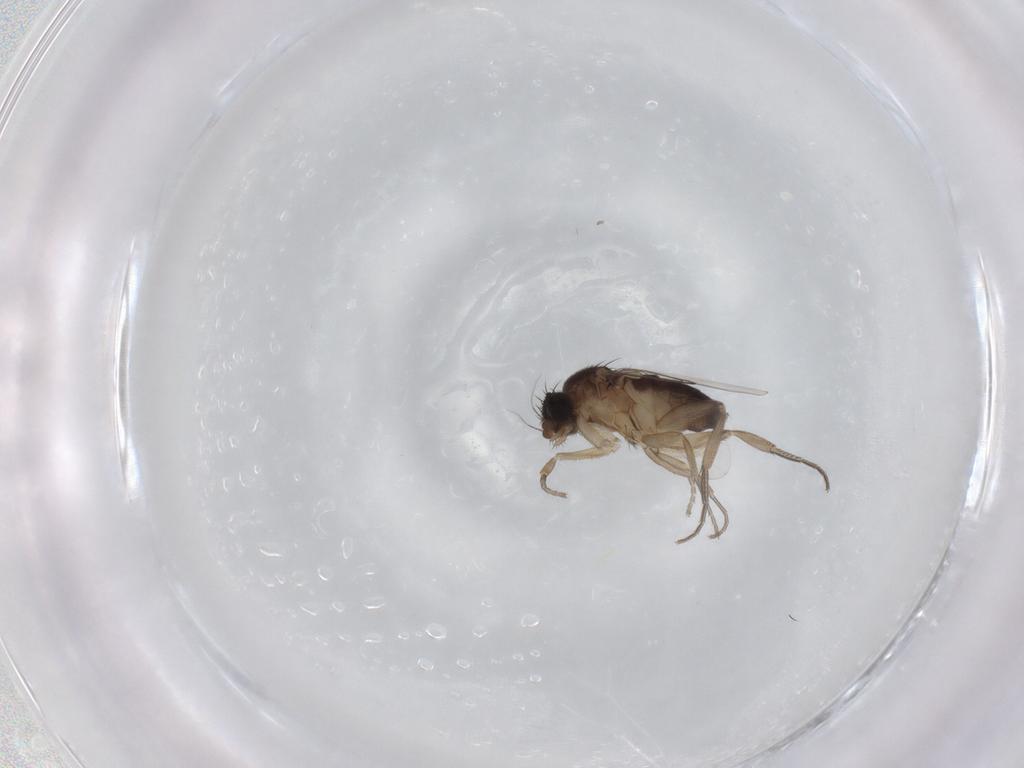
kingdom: Animalia
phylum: Arthropoda
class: Insecta
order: Diptera
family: Phoridae
